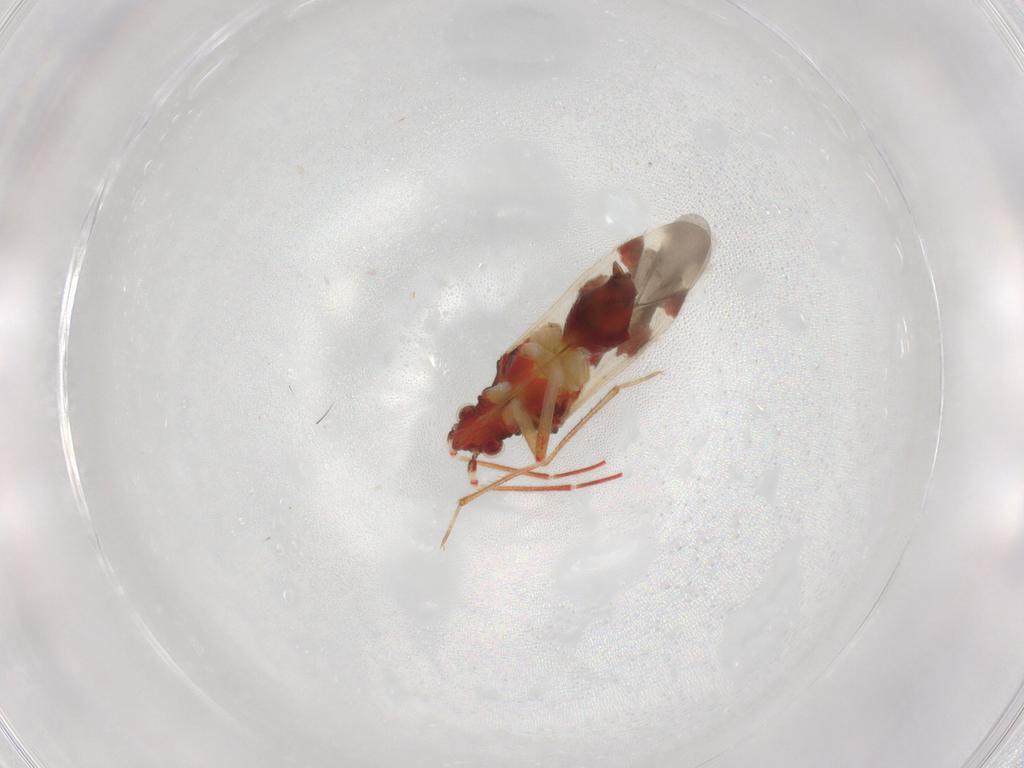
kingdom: Animalia
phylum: Arthropoda
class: Insecta
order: Hemiptera
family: Miridae
